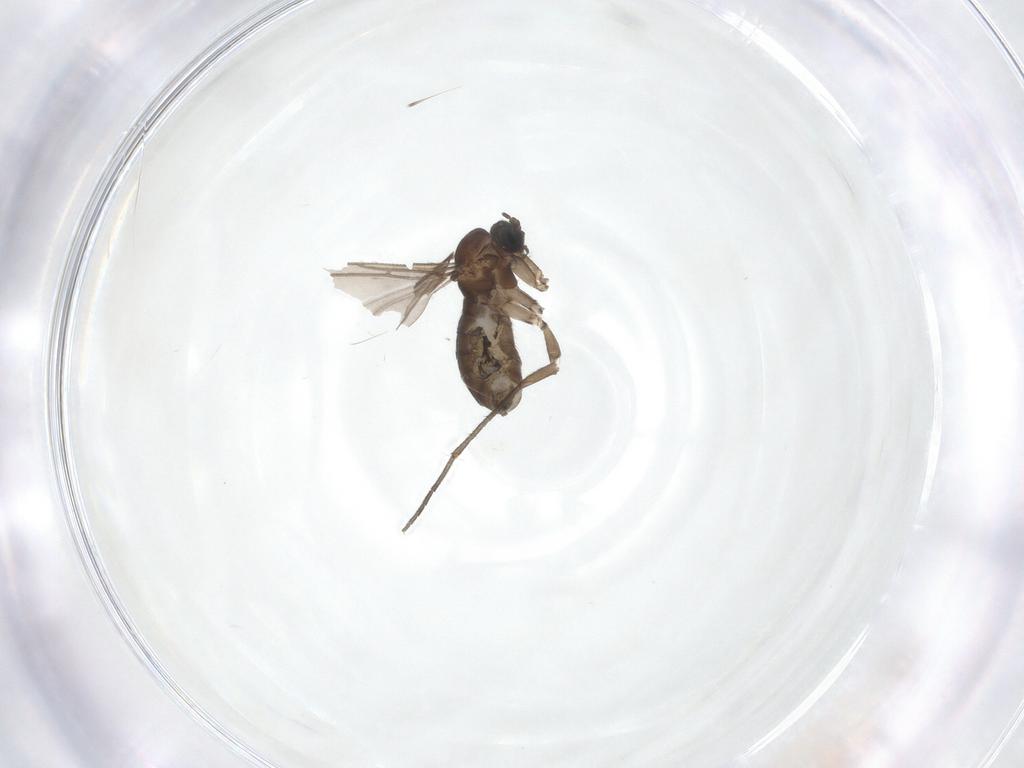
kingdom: Animalia
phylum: Arthropoda
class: Insecta
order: Diptera
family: Sciaridae
